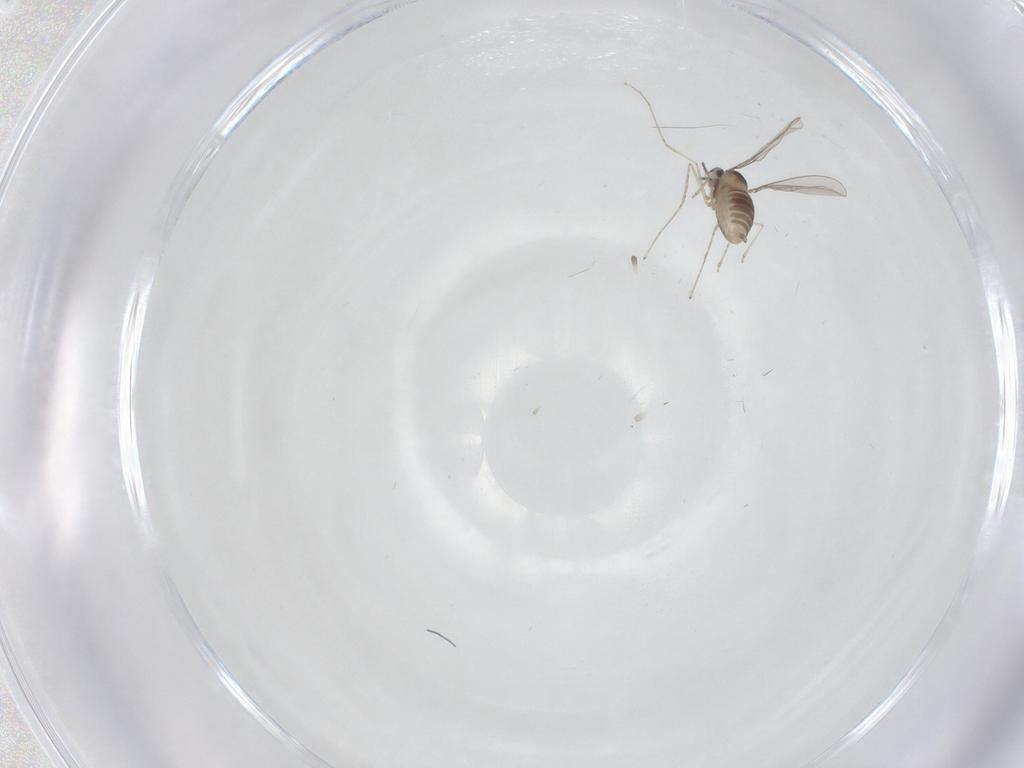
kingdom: Animalia
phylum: Arthropoda
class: Insecta
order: Diptera
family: Cecidomyiidae
